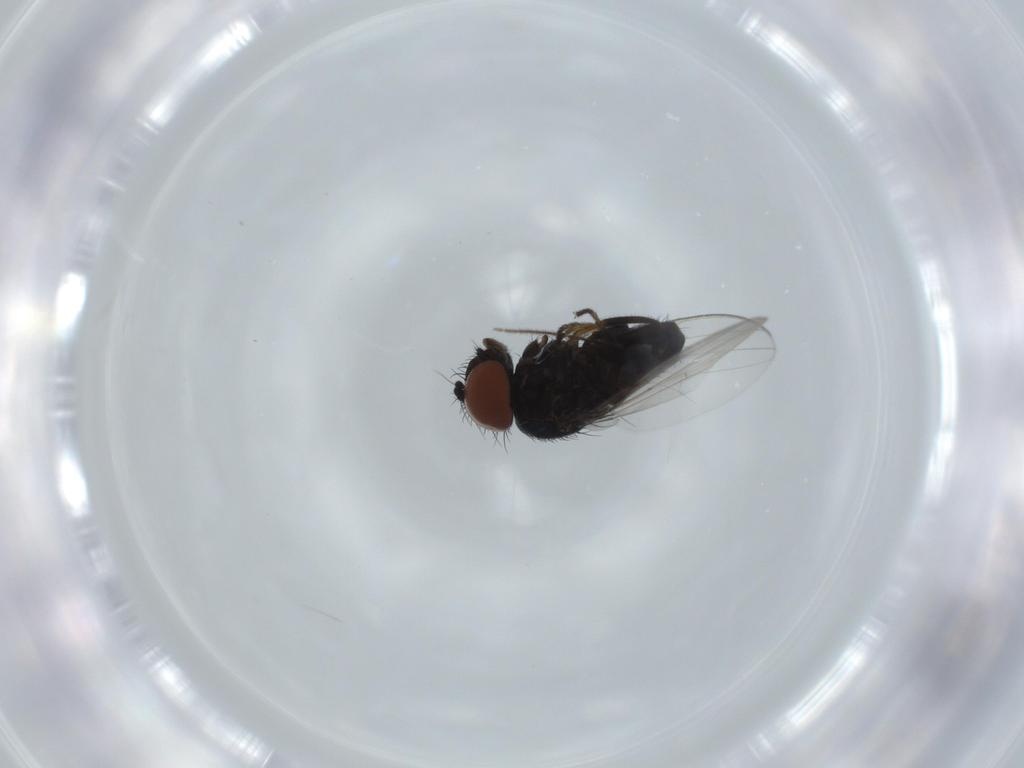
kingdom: Animalia
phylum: Arthropoda
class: Insecta
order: Diptera
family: Milichiidae
